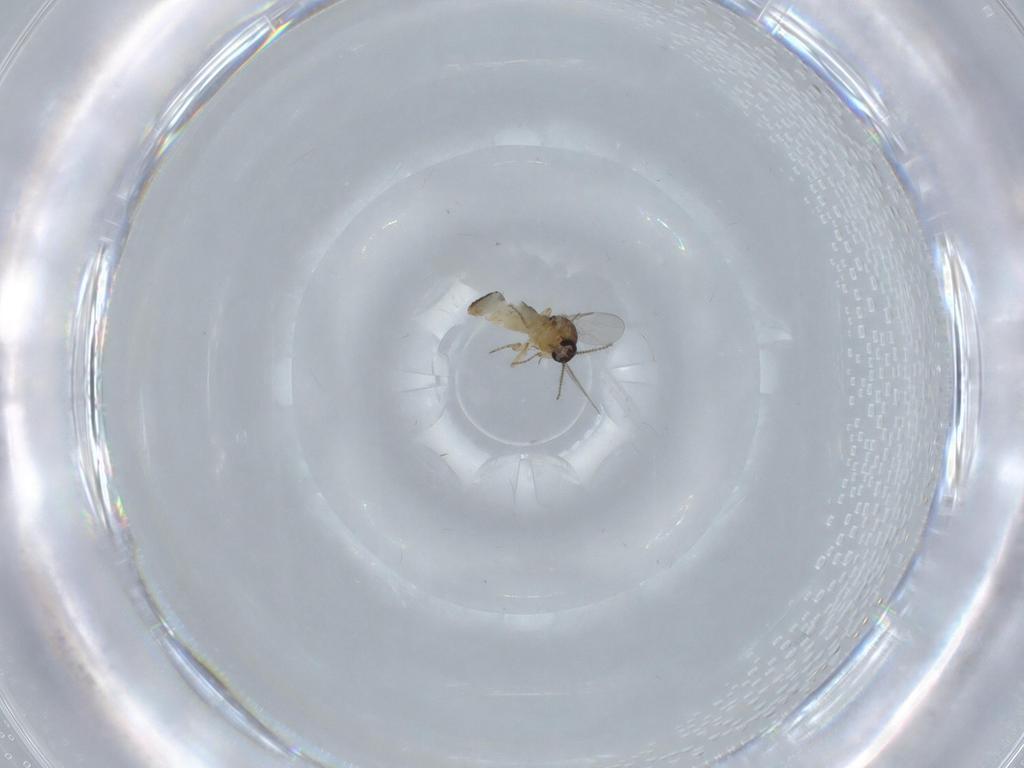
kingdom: Animalia
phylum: Arthropoda
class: Insecta
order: Diptera
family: Ceratopogonidae
